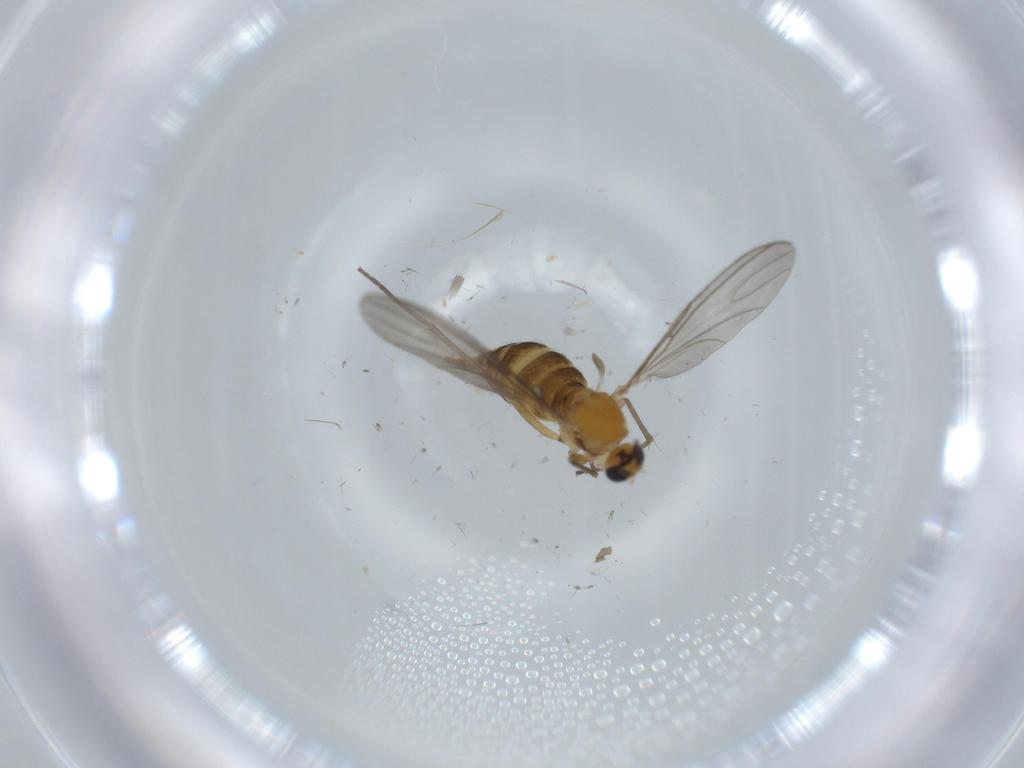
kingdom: Animalia
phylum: Arthropoda
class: Insecta
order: Diptera
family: Sciaridae
